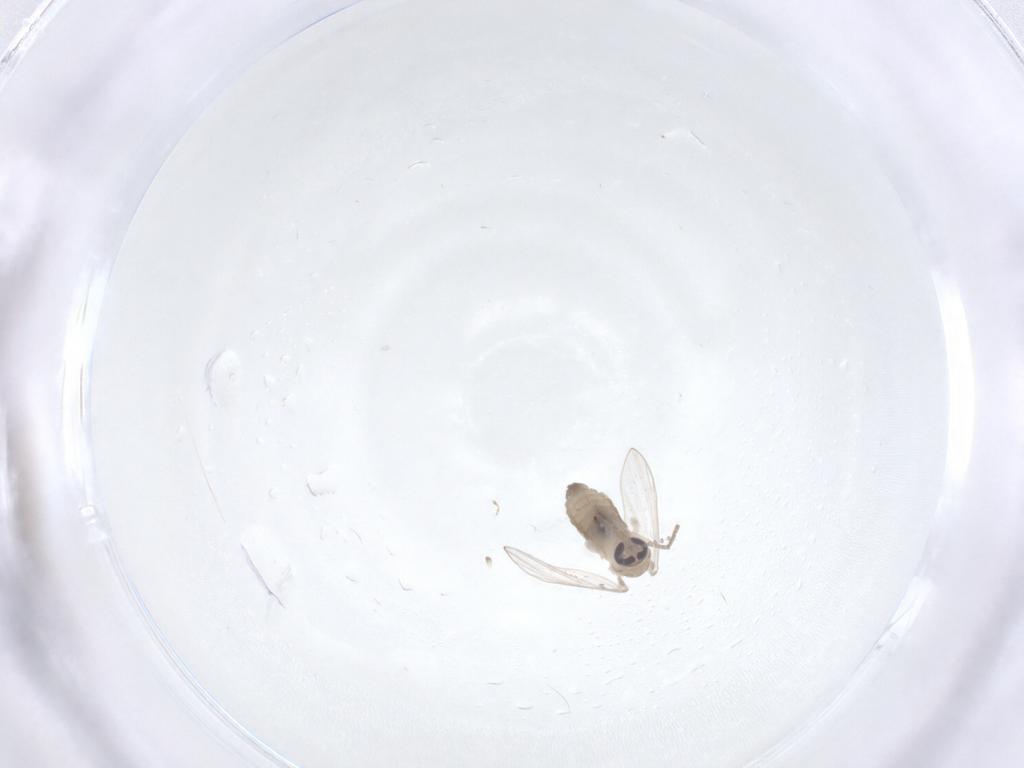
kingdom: Animalia
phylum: Arthropoda
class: Insecta
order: Diptera
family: Ceratopogonidae
